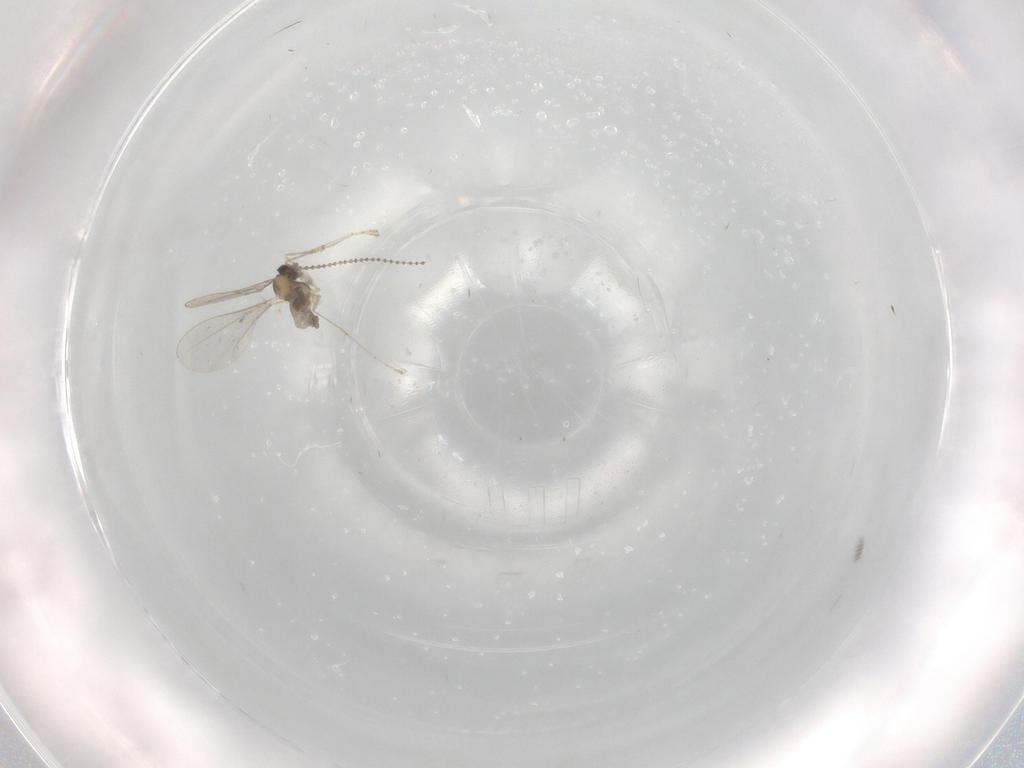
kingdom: Animalia
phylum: Arthropoda
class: Insecta
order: Diptera
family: Cecidomyiidae
